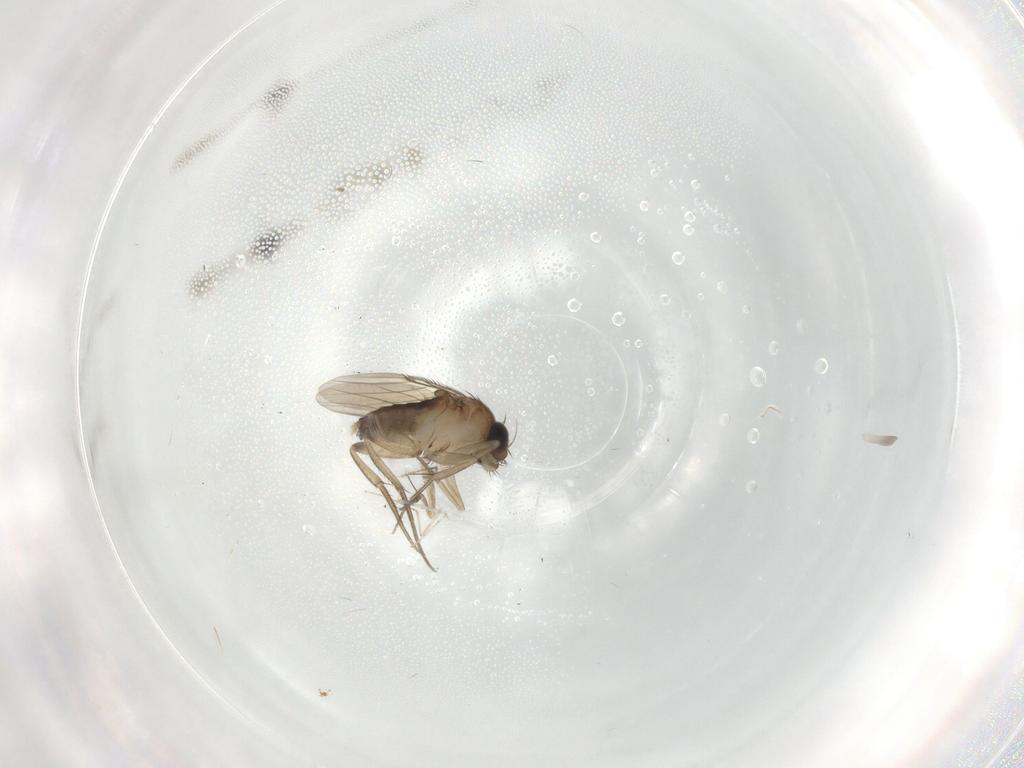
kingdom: Animalia
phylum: Arthropoda
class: Insecta
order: Diptera
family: Phoridae
